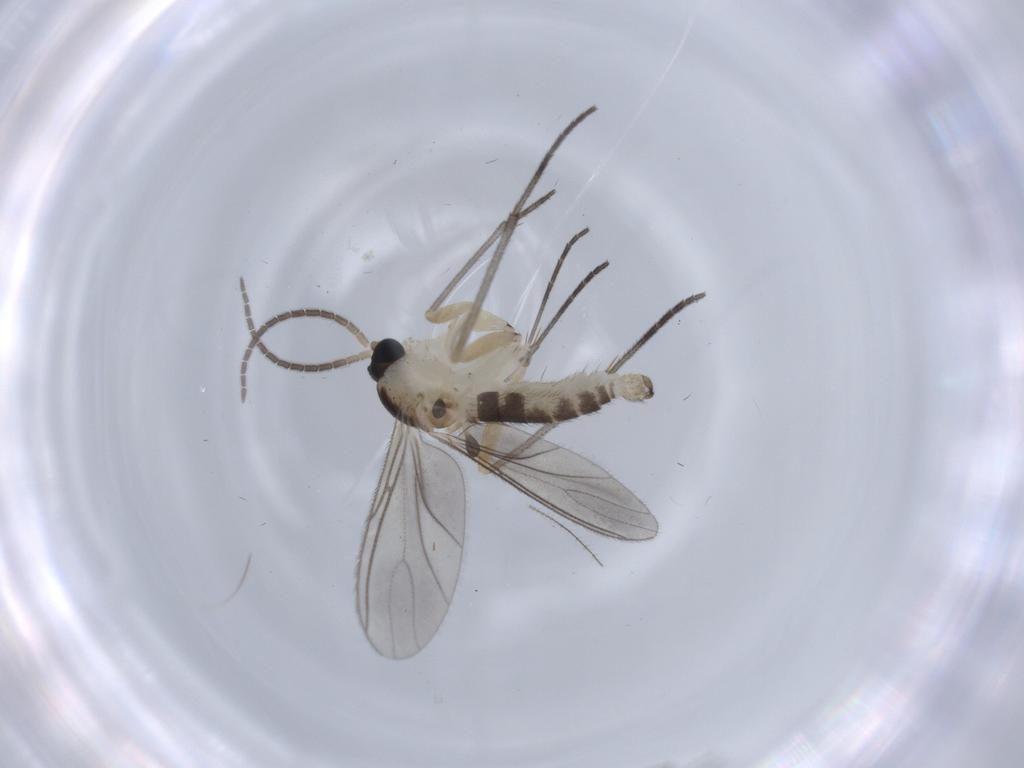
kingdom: Animalia
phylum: Arthropoda
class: Insecta
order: Diptera
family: Sciaridae
